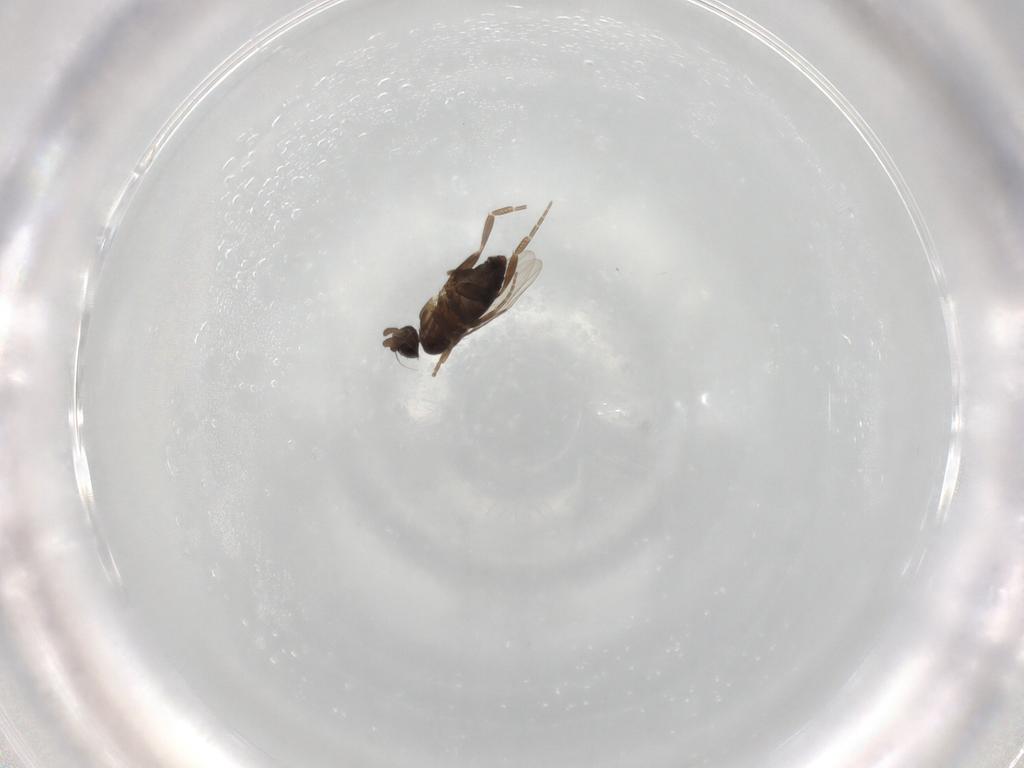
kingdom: Animalia
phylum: Arthropoda
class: Insecta
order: Diptera
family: Phoridae
